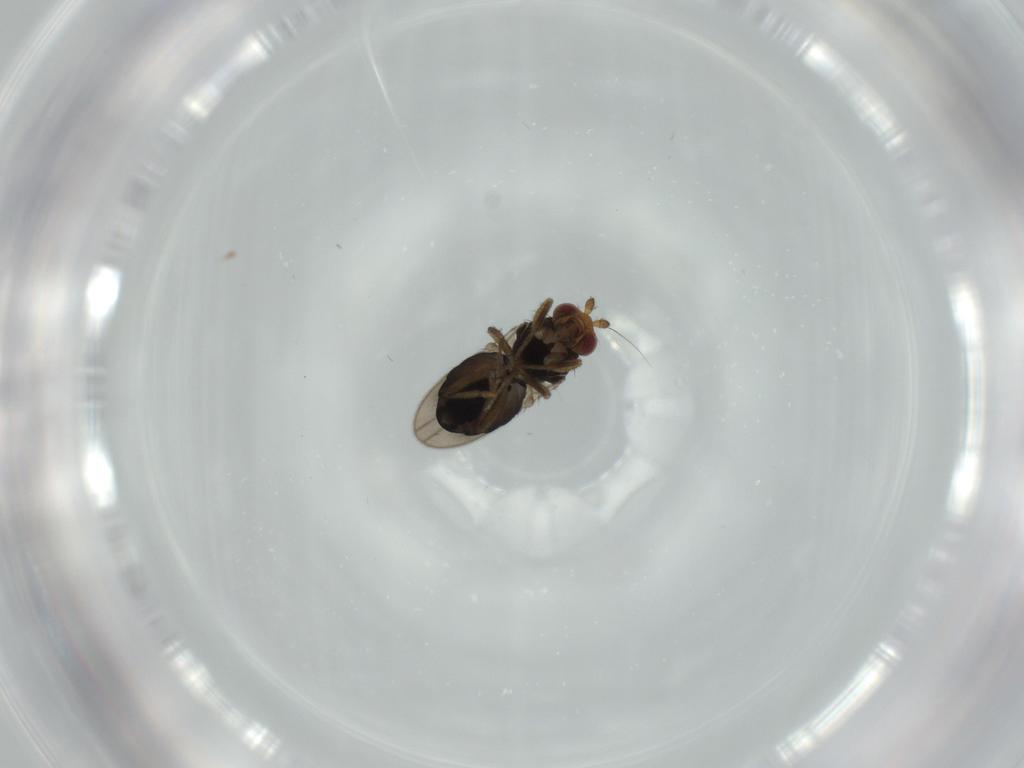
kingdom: Animalia
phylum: Arthropoda
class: Insecta
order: Diptera
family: Sphaeroceridae
